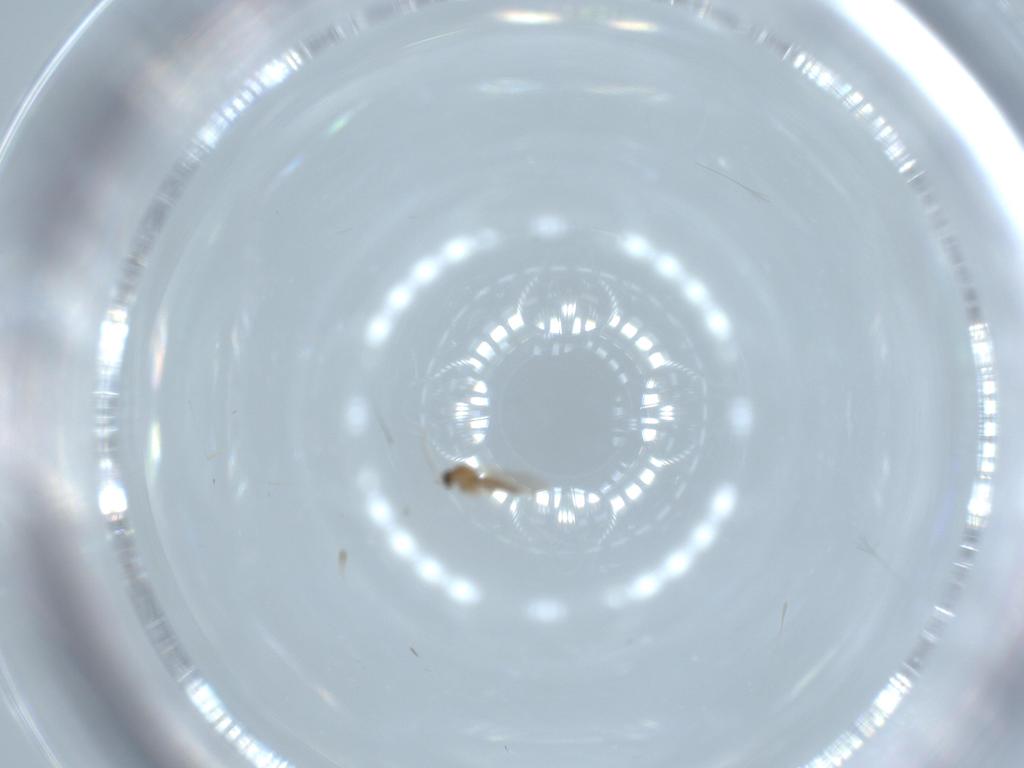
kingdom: Animalia
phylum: Arthropoda
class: Insecta
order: Diptera
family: Cecidomyiidae
